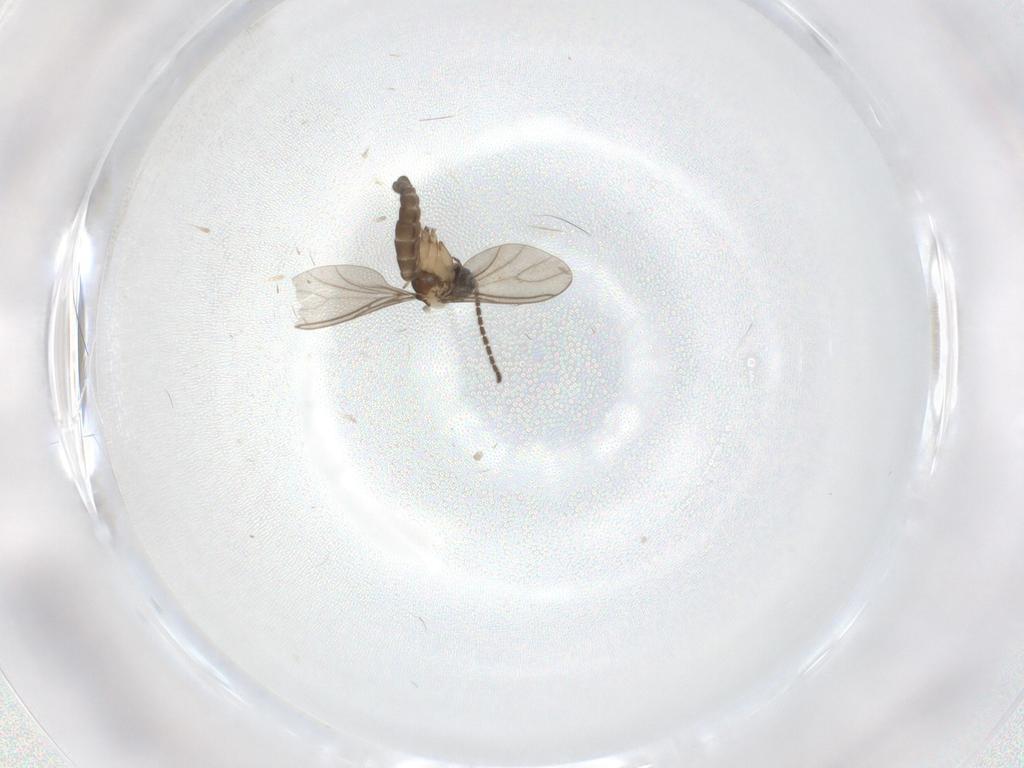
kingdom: Animalia
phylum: Arthropoda
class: Insecta
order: Diptera
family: Sciaridae
